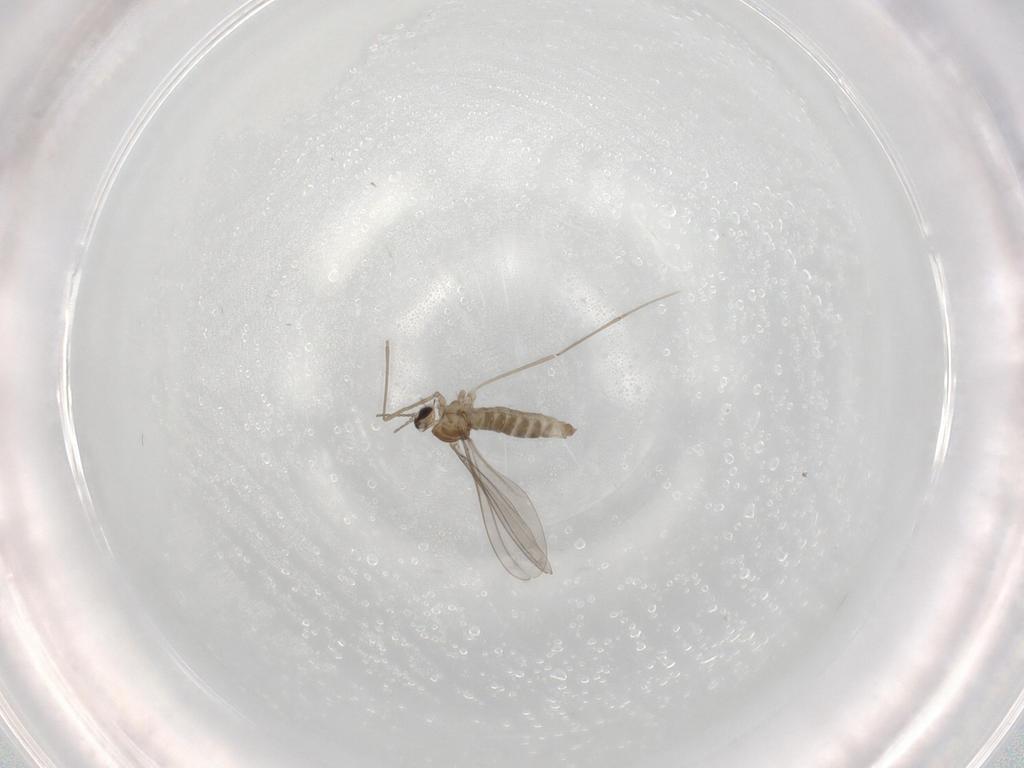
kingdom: Animalia
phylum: Arthropoda
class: Insecta
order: Diptera
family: Cecidomyiidae
